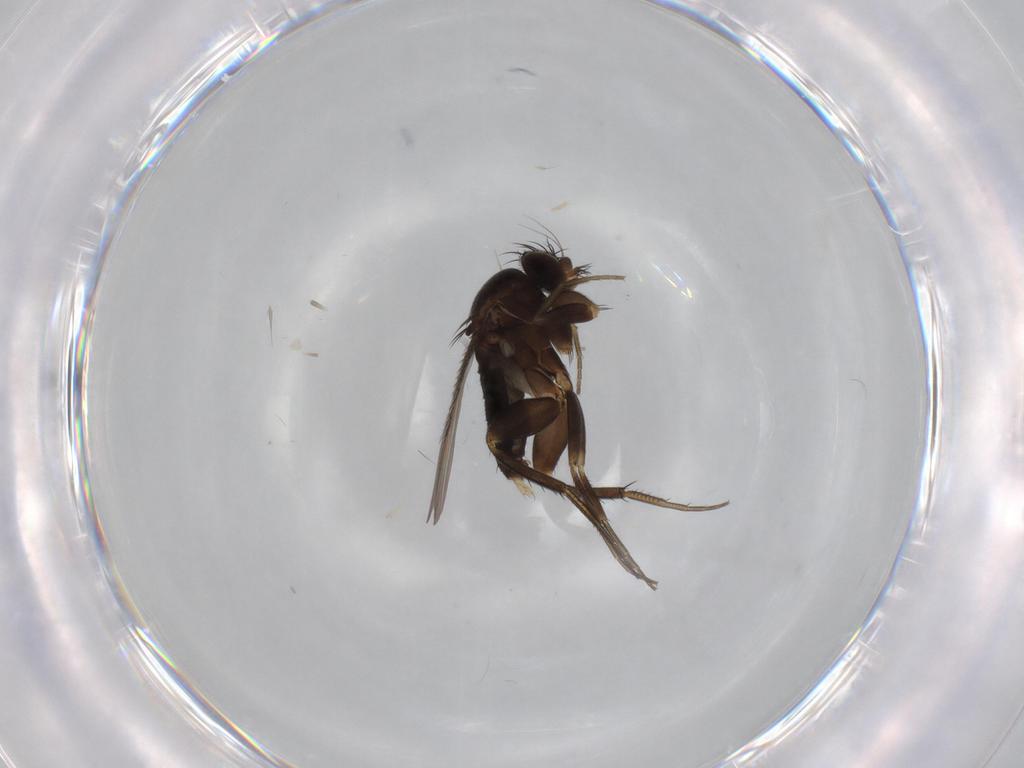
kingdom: Animalia
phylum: Arthropoda
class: Insecta
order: Diptera
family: Phoridae
